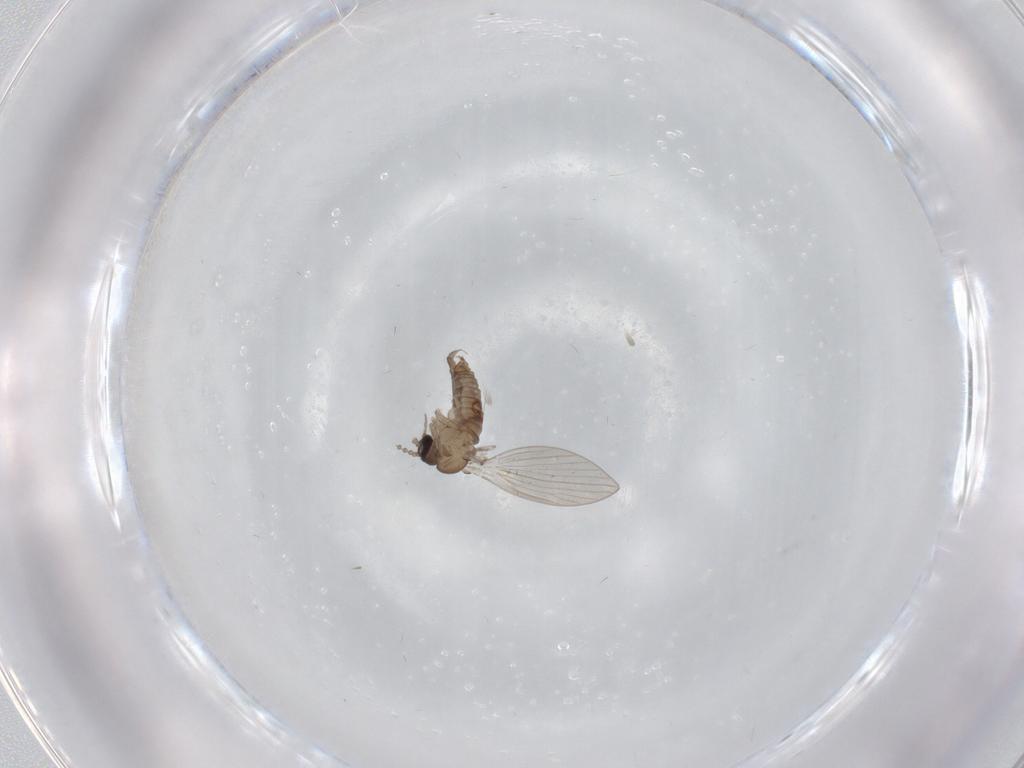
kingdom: Animalia
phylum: Arthropoda
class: Insecta
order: Diptera
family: Psychodidae
